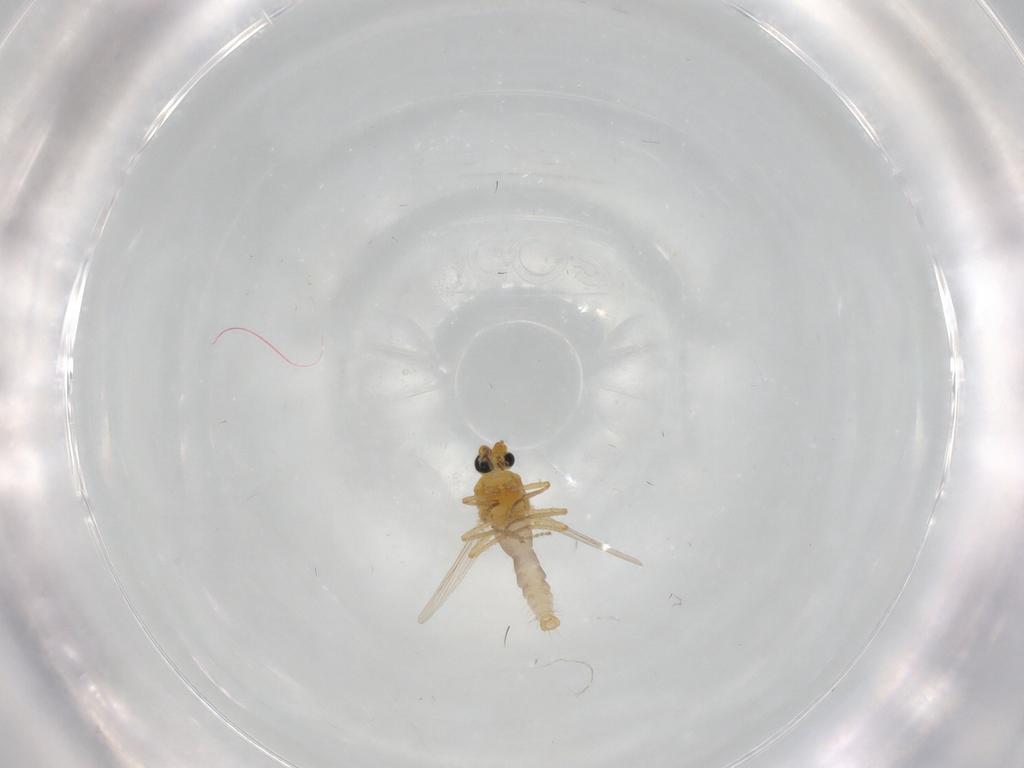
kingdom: Animalia
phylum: Arthropoda
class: Insecta
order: Diptera
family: Ceratopogonidae
